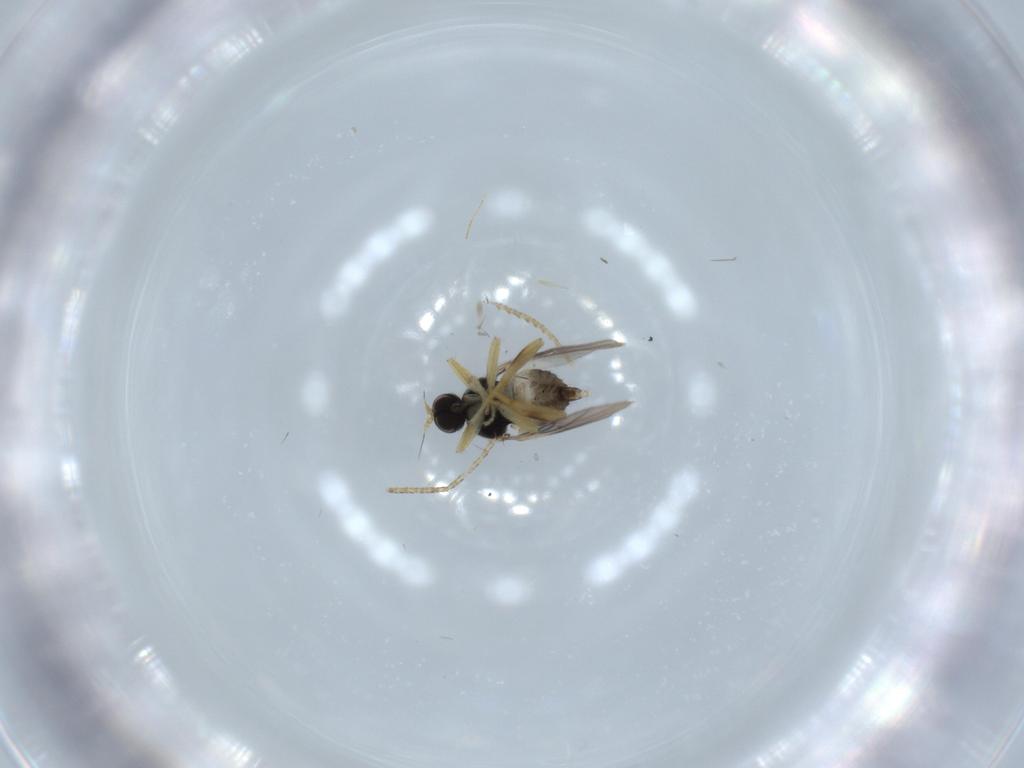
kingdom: Animalia
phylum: Arthropoda
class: Insecta
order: Diptera
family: Hybotidae
